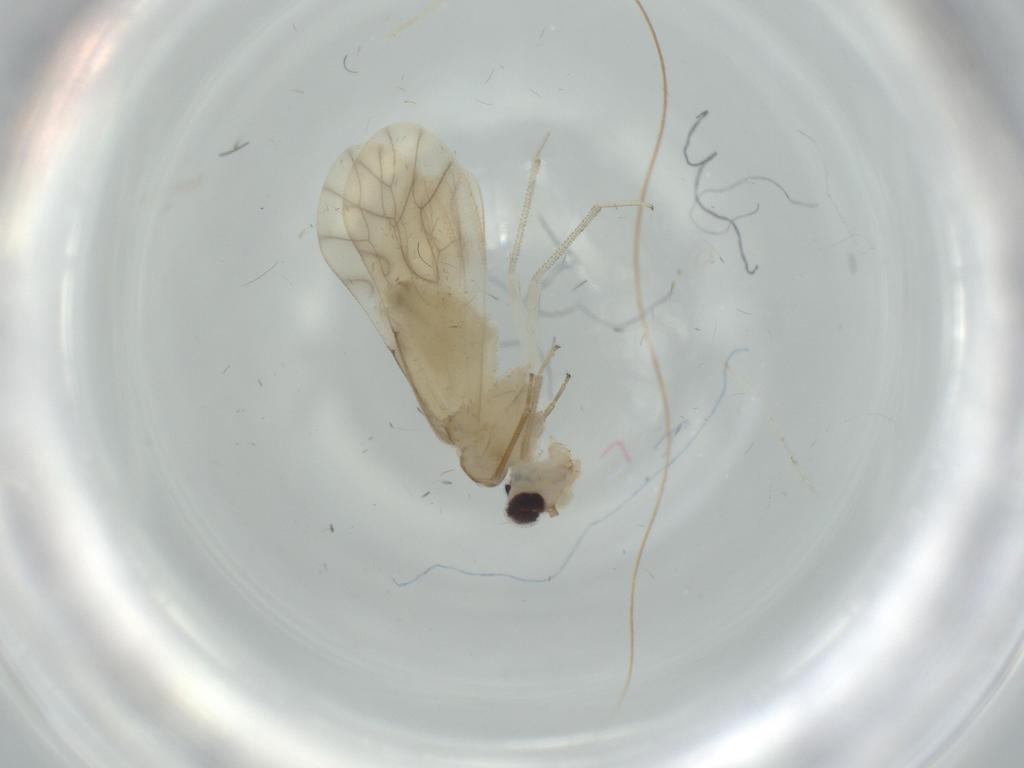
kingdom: Animalia
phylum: Arthropoda
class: Insecta
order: Psocodea
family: Caeciliusidae
